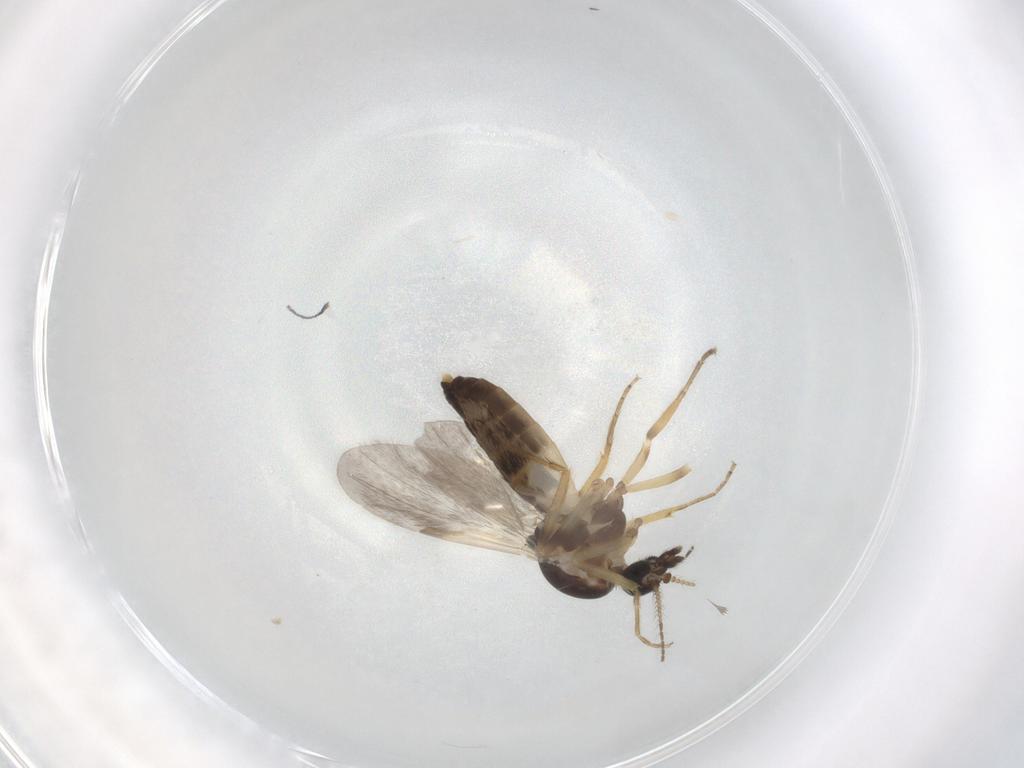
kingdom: Animalia
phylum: Arthropoda
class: Insecta
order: Diptera
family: Ceratopogonidae
